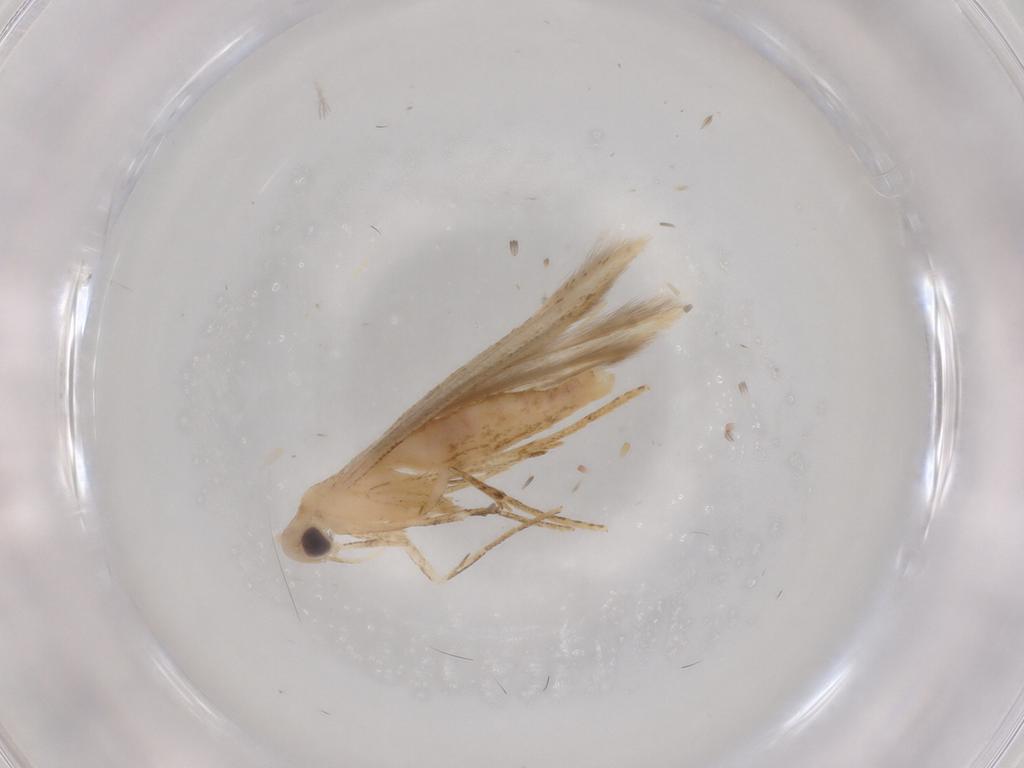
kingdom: Animalia
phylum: Arthropoda
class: Insecta
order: Lepidoptera
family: Batrachedridae
